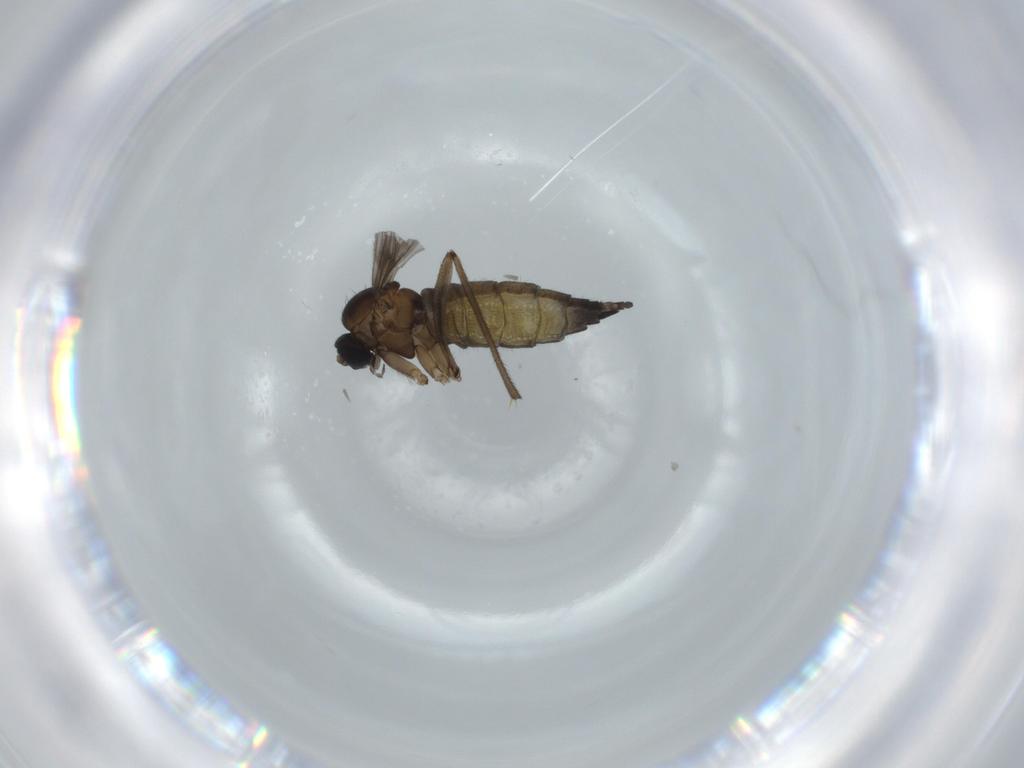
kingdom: Animalia
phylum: Arthropoda
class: Insecta
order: Diptera
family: Sciaridae
